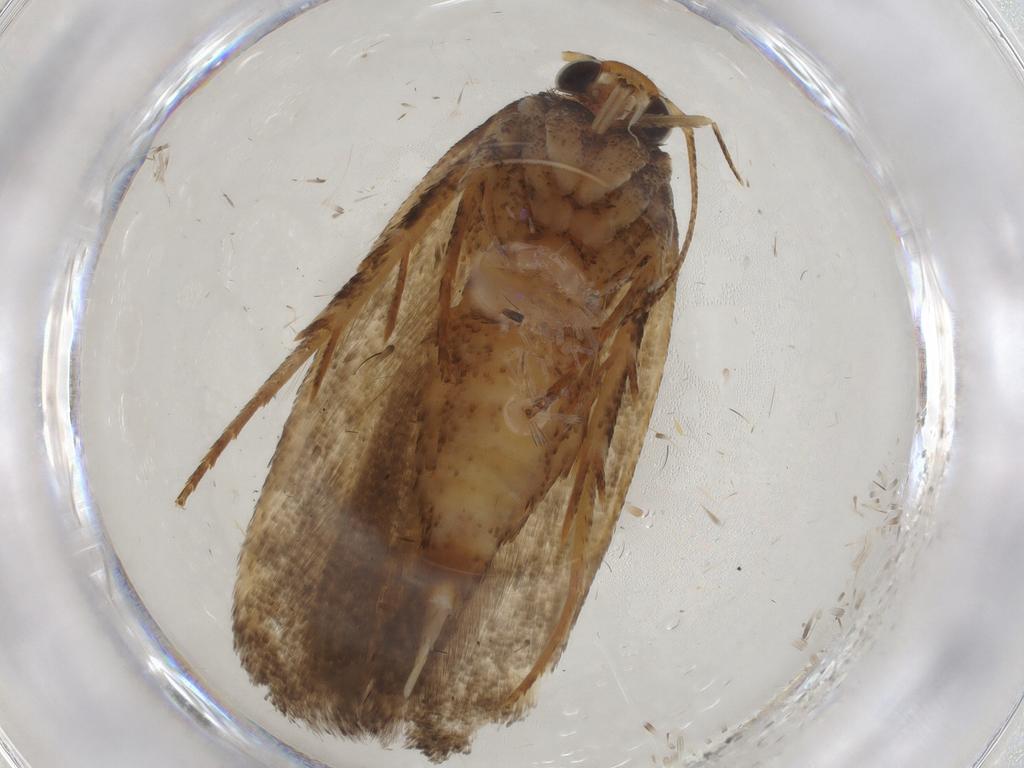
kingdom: Animalia
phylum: Arthropoda
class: Insecta
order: Lepidoptera
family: Gelechiidae
